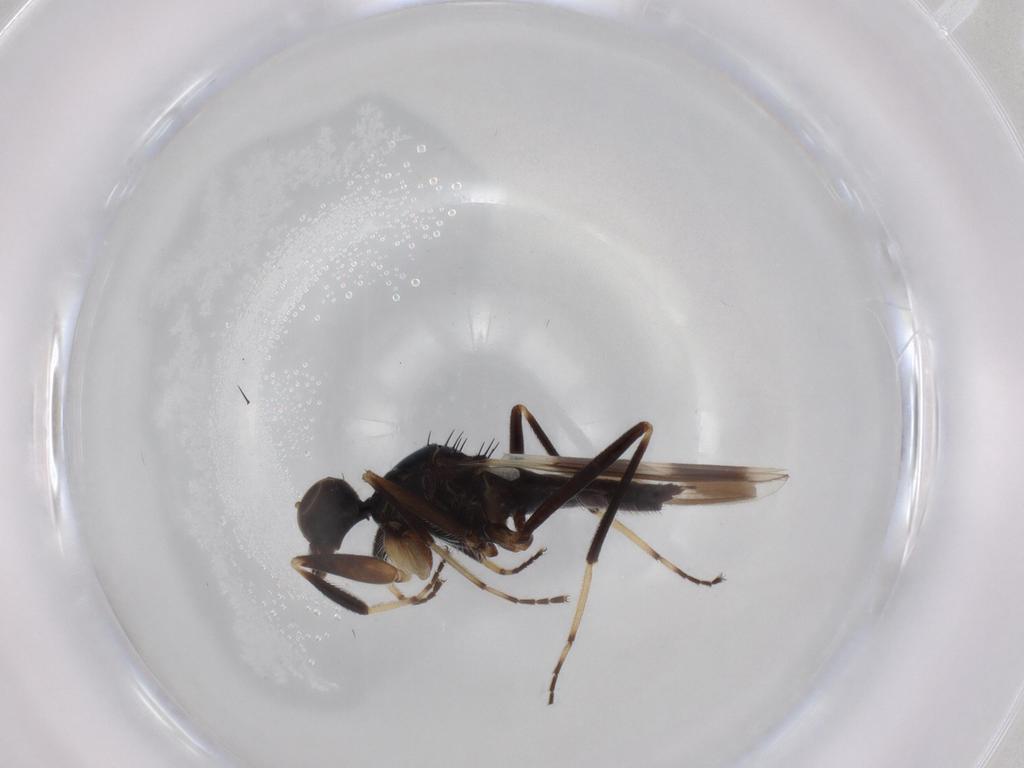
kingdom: Animalia
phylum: Arthropoda
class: Insecta
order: Diptera
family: Hybotidae
